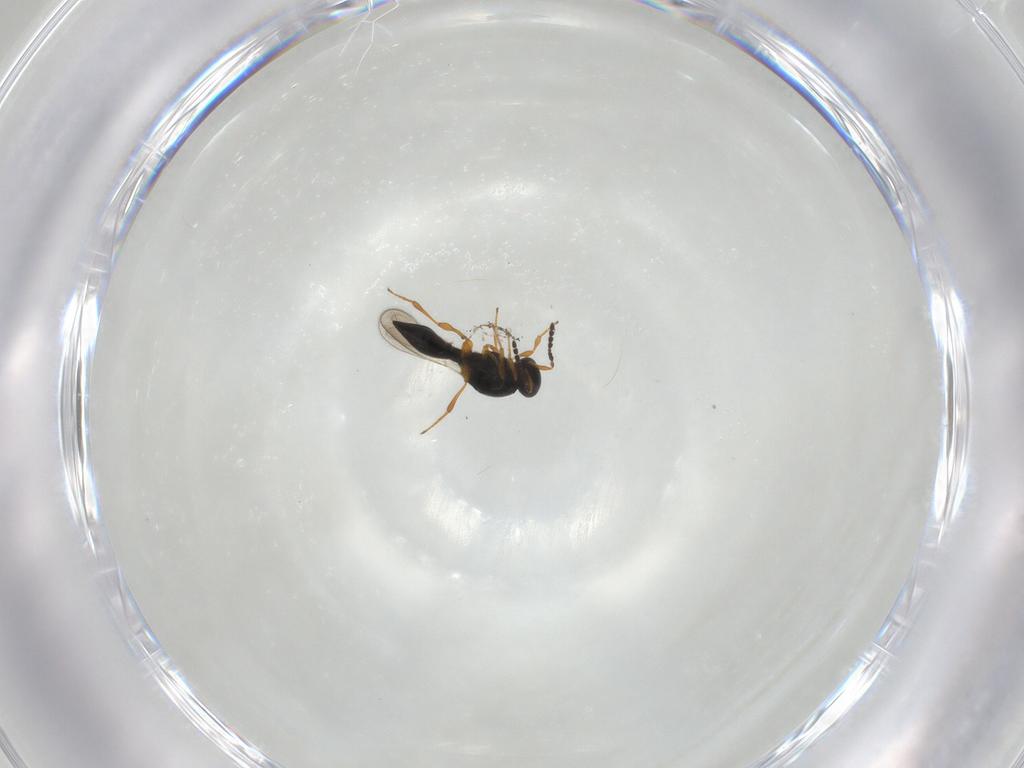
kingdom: Animalia
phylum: Arthropoda
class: Insecta
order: Hymenoptera
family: Platygastridae
